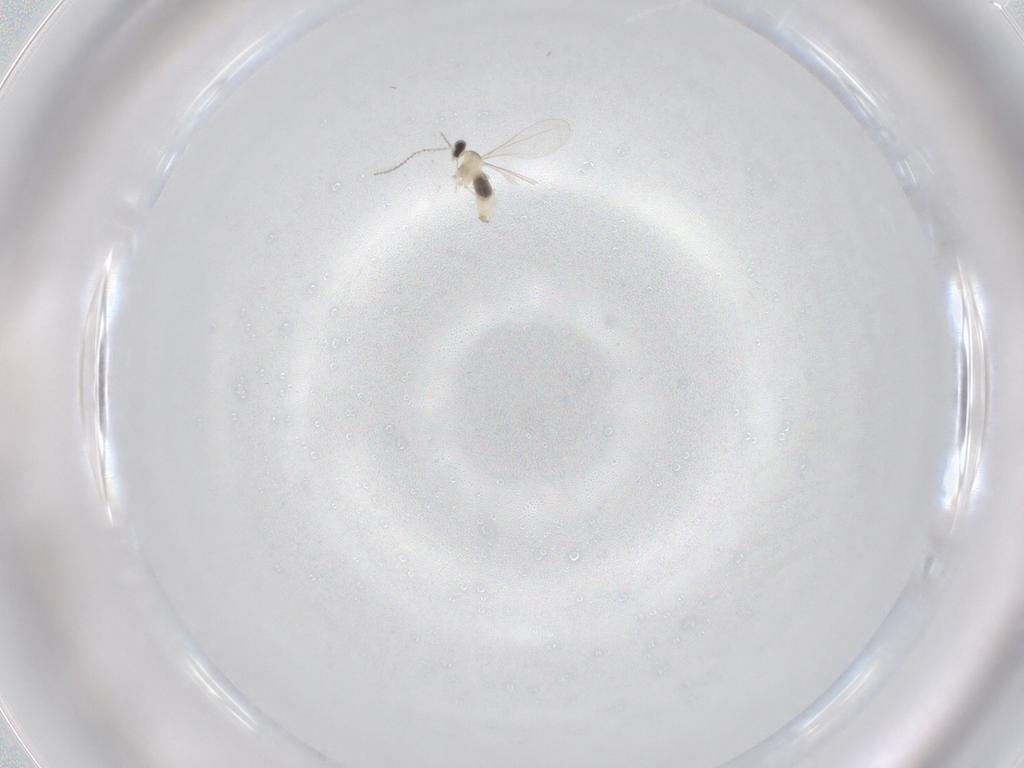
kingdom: Animalia
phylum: Arthropoda
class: Insecta
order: Diptera
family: Cecidomyiidae
